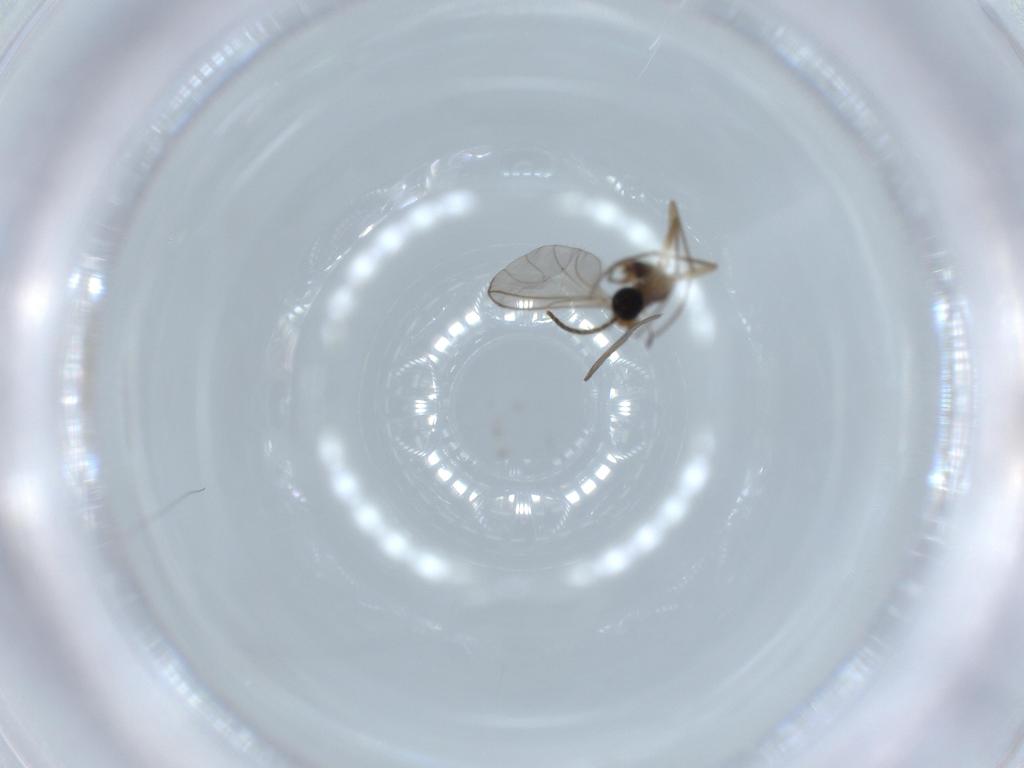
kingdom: Animalia
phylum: Arthropoda
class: Insecta
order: Diptera
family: Sciaridae
